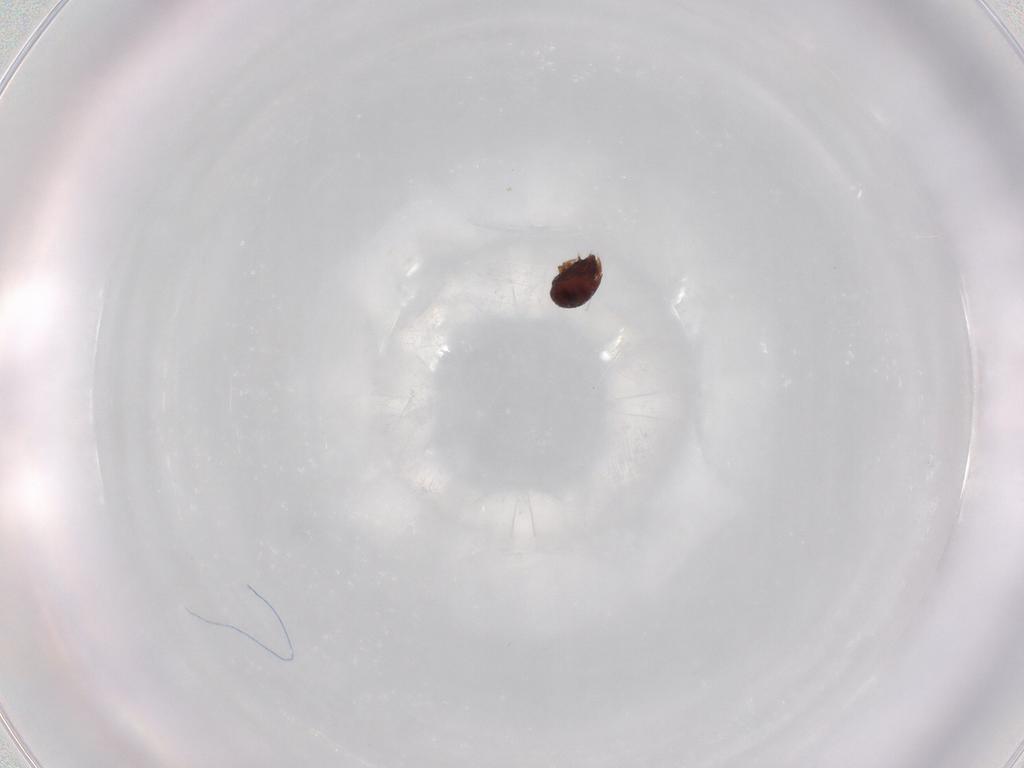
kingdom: Animalia
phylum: Arthropoda
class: Arachnida
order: Sarcoptiformes
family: Phenopelopidae
